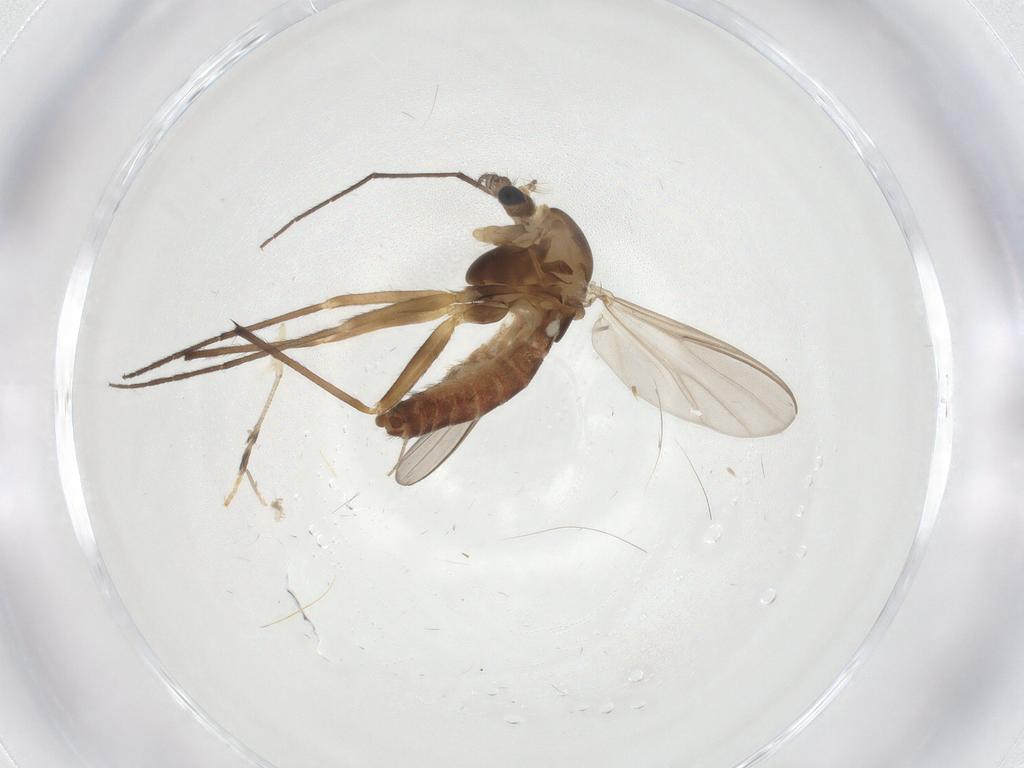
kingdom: Animalia
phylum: Arthropoda
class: Insecta
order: Diptera
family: Chironomidae
